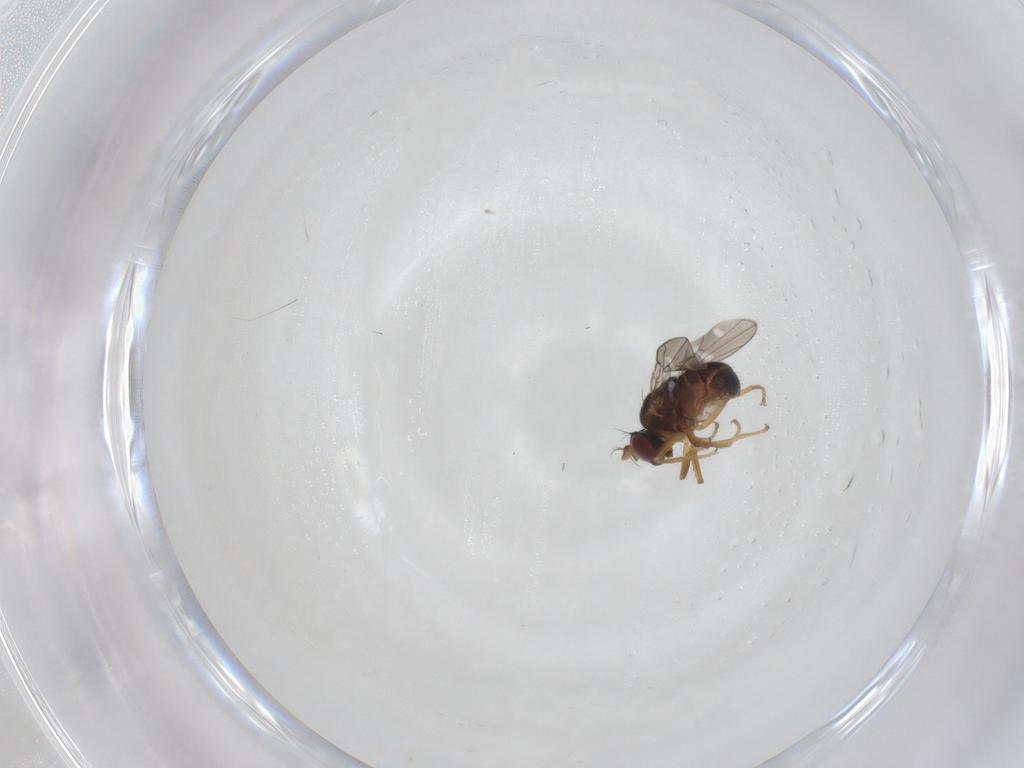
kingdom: Animalia
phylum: Arthropoda
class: Insecta
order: Diptera
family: Ephydridae
